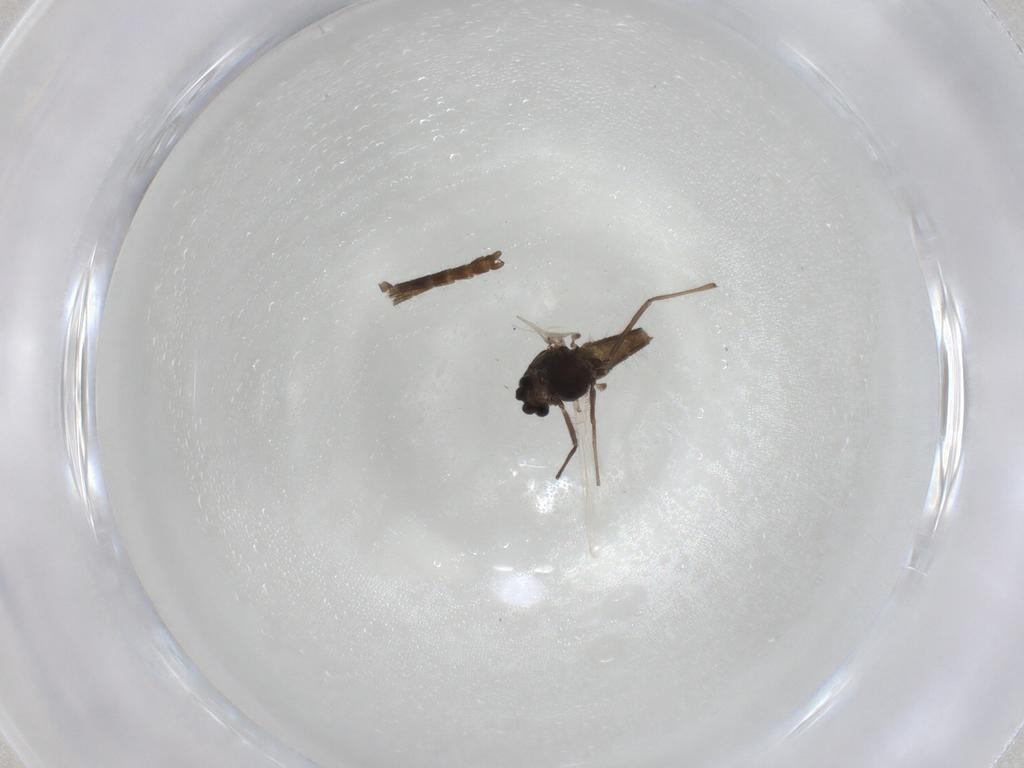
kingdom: Animalia
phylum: Arthropoda
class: Insecta
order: Diptera
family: Chironomidae
